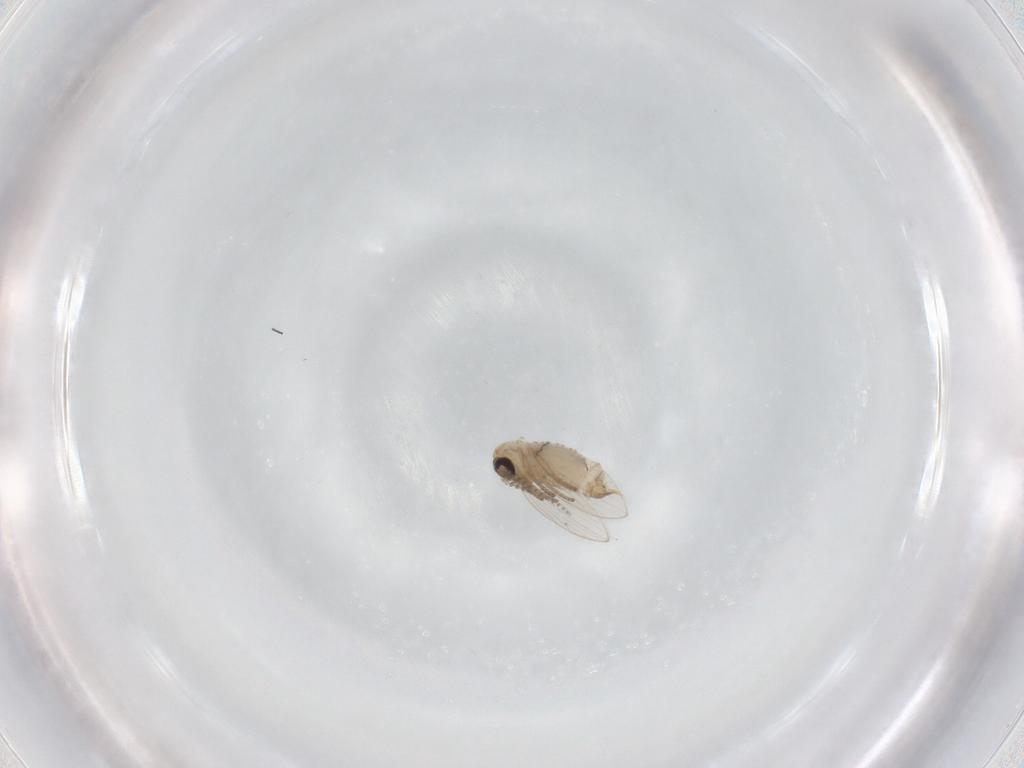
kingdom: Animalia
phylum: Arthropoda
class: Insecta
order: Diptera
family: Psychodidae
